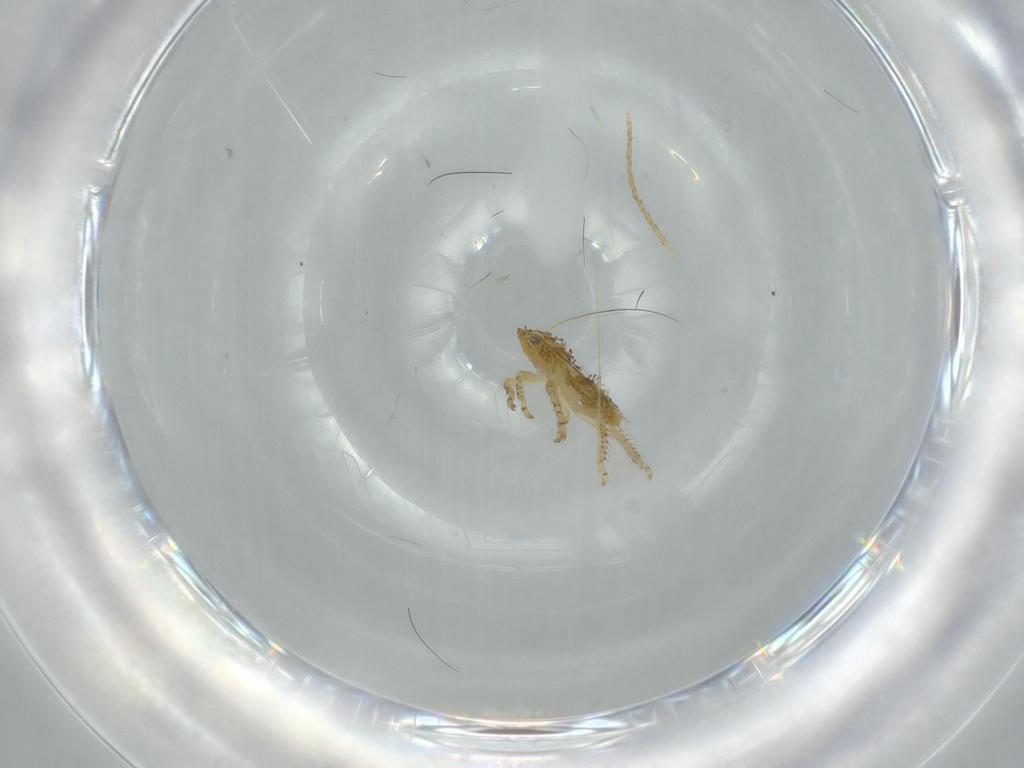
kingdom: Animalia
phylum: Arthropoda
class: Insecta
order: Hemiptera
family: Cicadellidae
